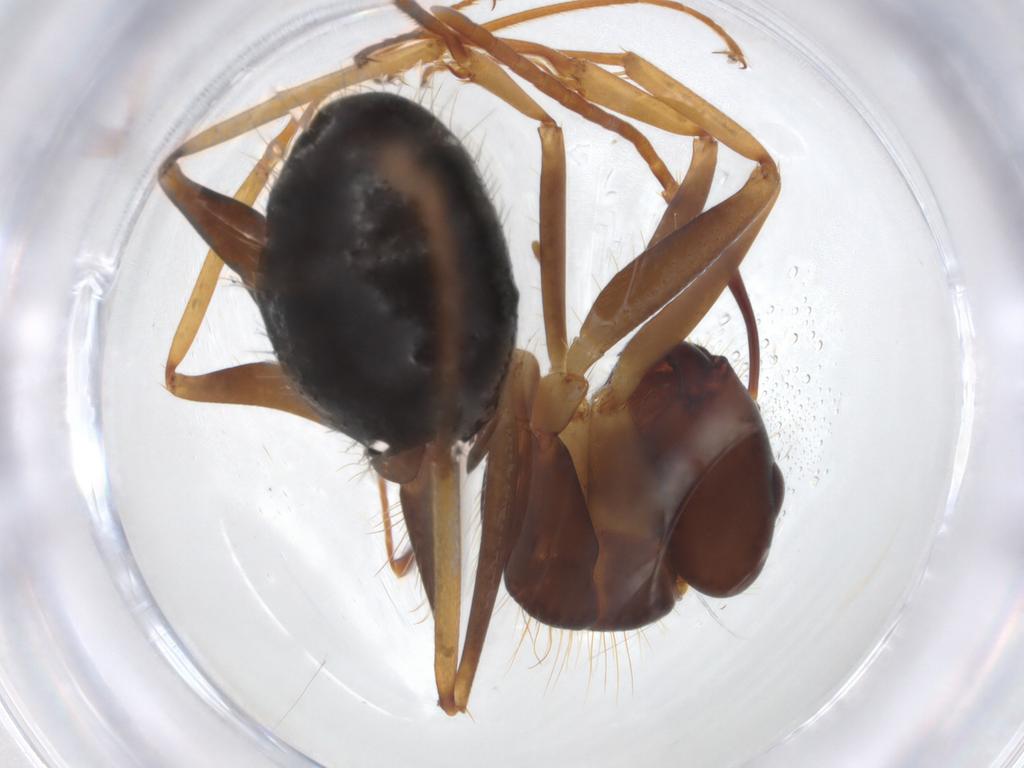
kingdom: Animalia
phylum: Arthropoda
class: Insecta
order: Hymenoptera
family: Formicidae
